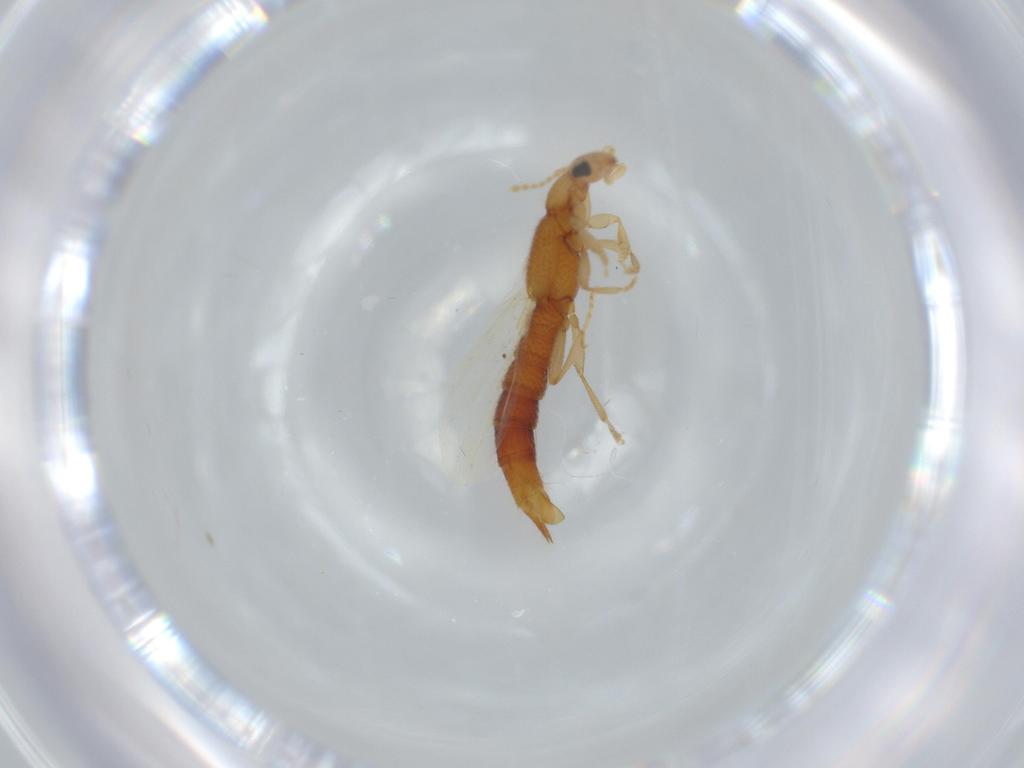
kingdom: Animalia
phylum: Arthropoda
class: Insecta
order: Coleoptera
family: Staphylinidae
